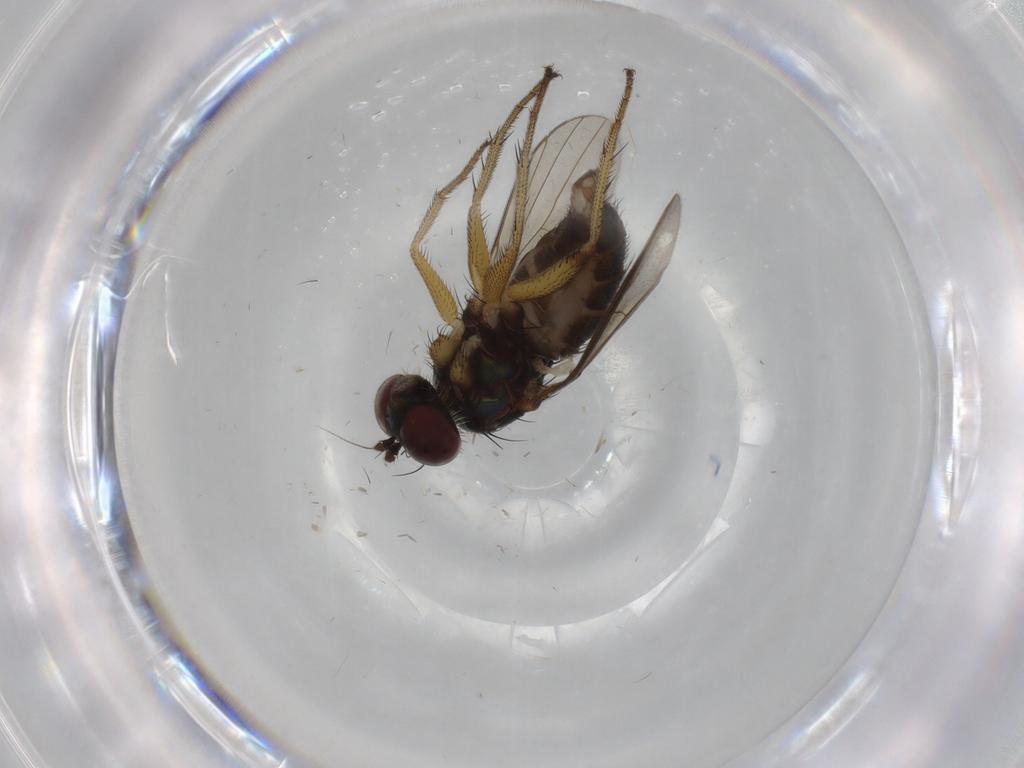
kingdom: Animalia
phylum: Arthropoda
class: Insecta
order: Diptera
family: Dolichopodidae
